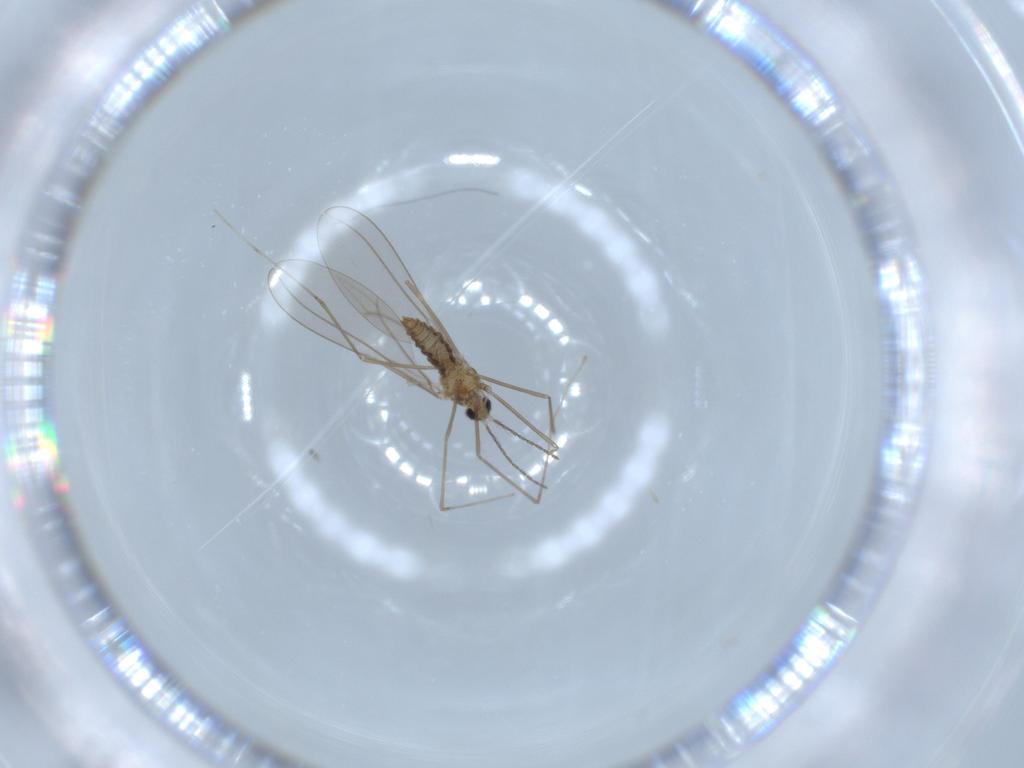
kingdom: Animalia
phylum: Arthropoda
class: Insecta
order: Diptera
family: Cecidomyiidae
